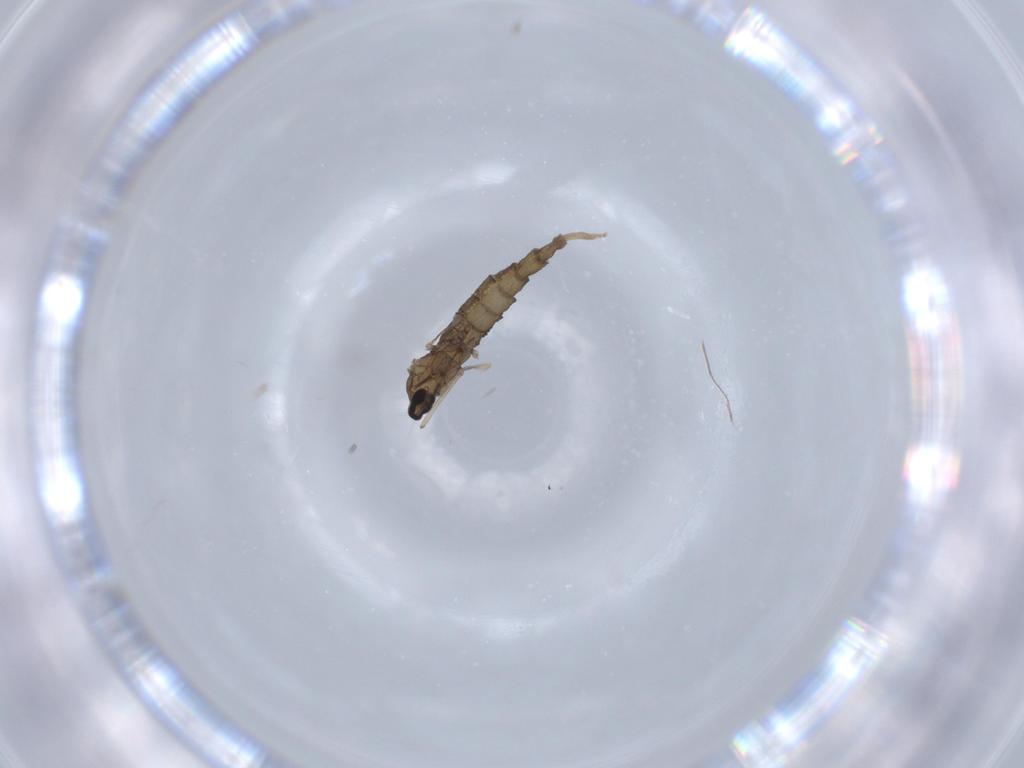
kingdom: Animalia
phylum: Arthropoda
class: Insecta
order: Diptera
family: Cecidomyiidae
